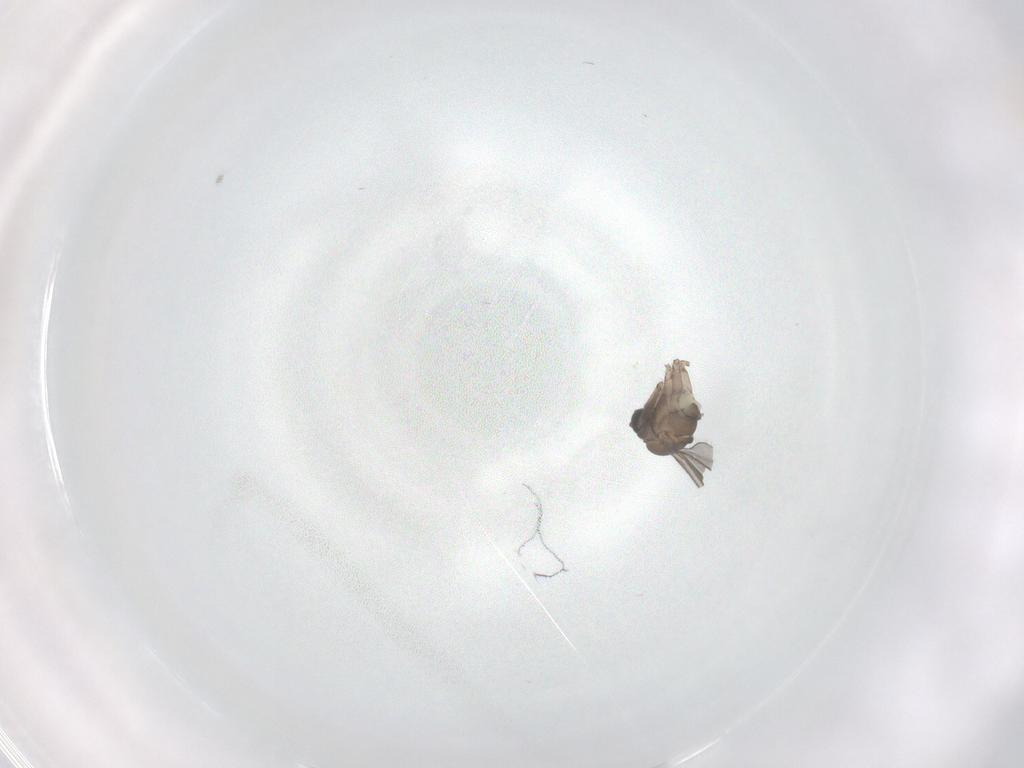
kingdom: Animalia
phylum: Arthropoda
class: Insecta
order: Diptera
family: Sciaridae
